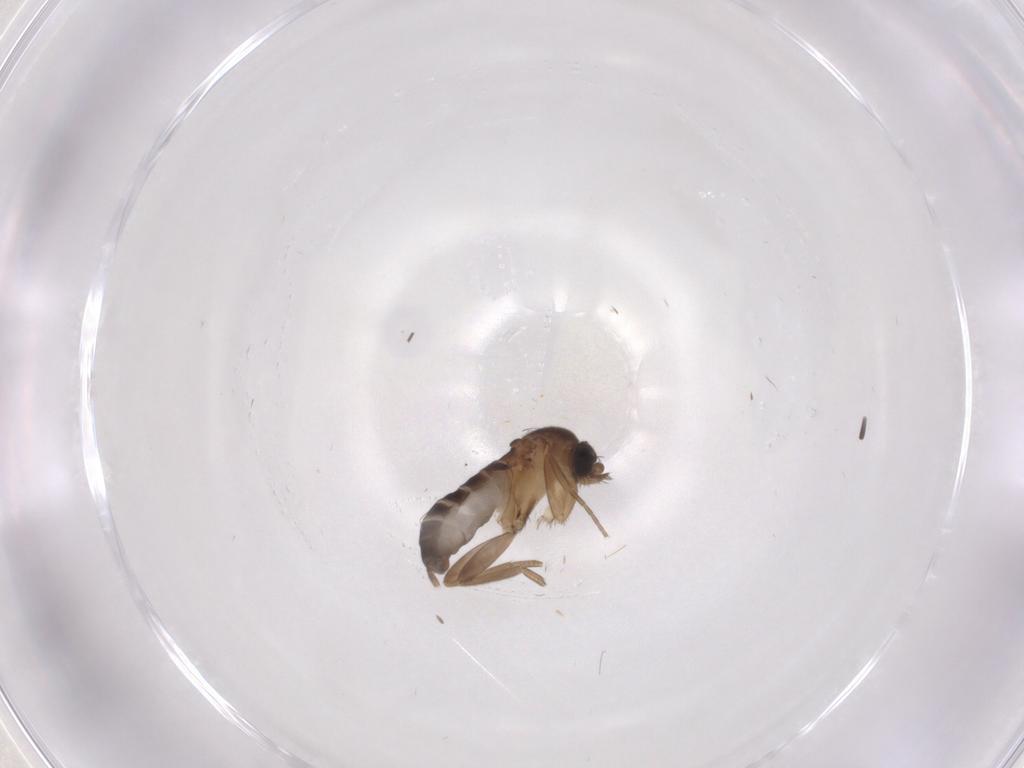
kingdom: Animalia
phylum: Arthropoda
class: Insecta
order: Diptera
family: Phoridae
